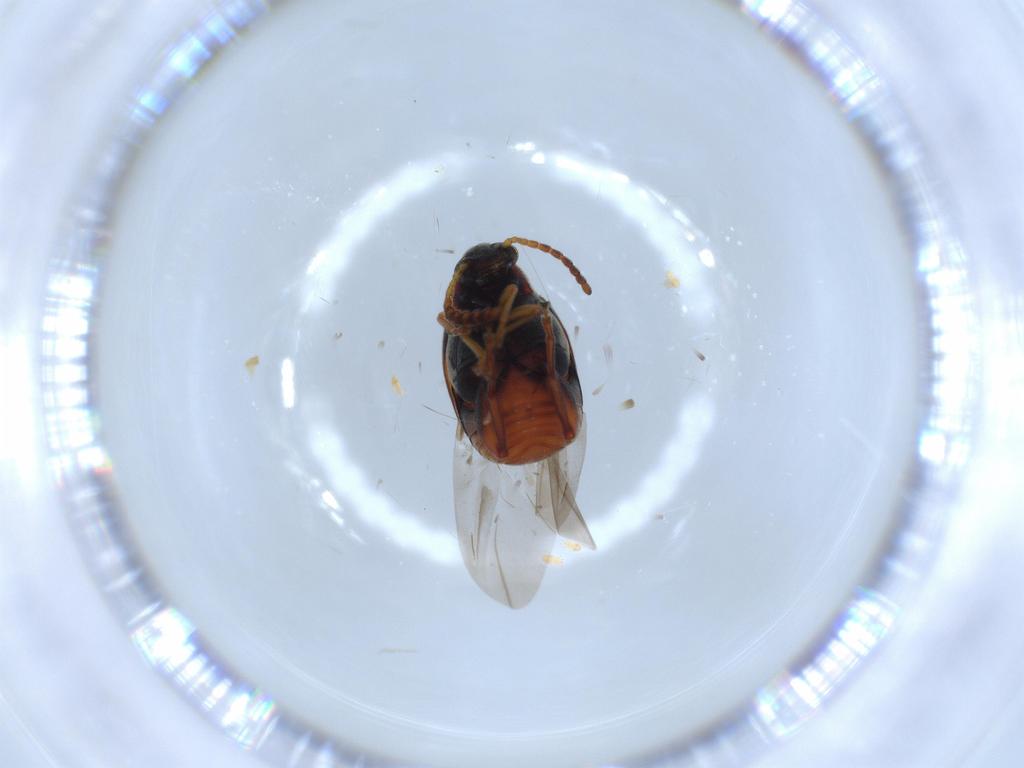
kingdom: Animalia
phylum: Arthropoda
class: Insecta
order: Coleoptera
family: Chrysomelidae
